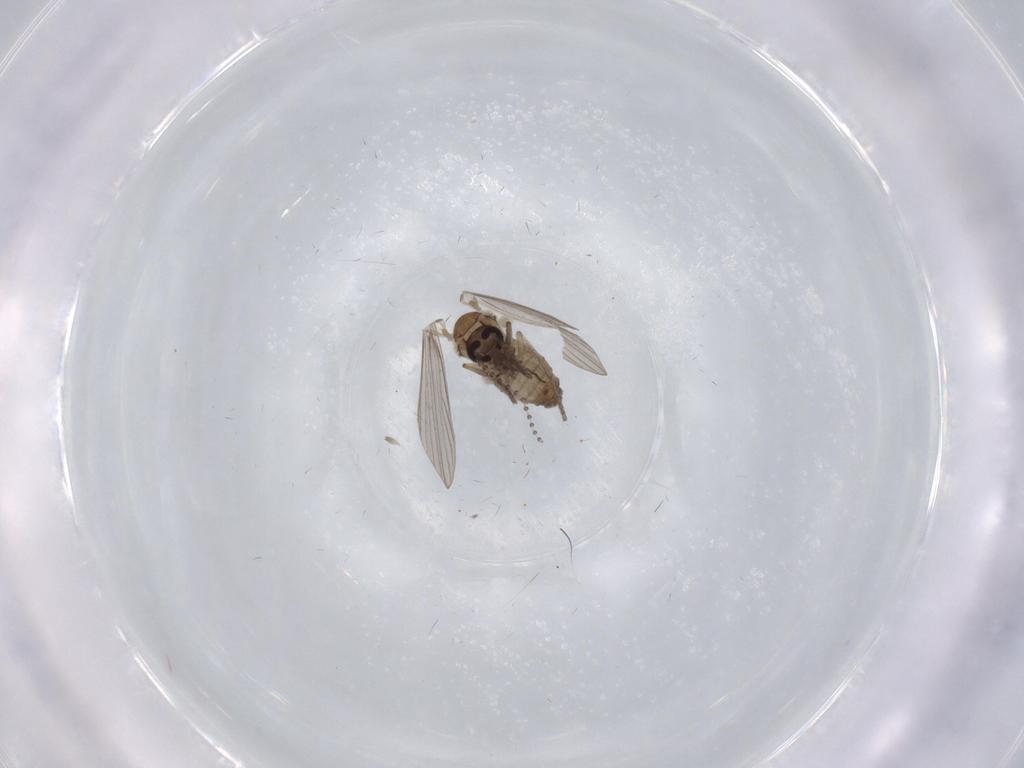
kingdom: Animalia
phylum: Arthropoda
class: Insecta
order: Diptera
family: Psychodidae
